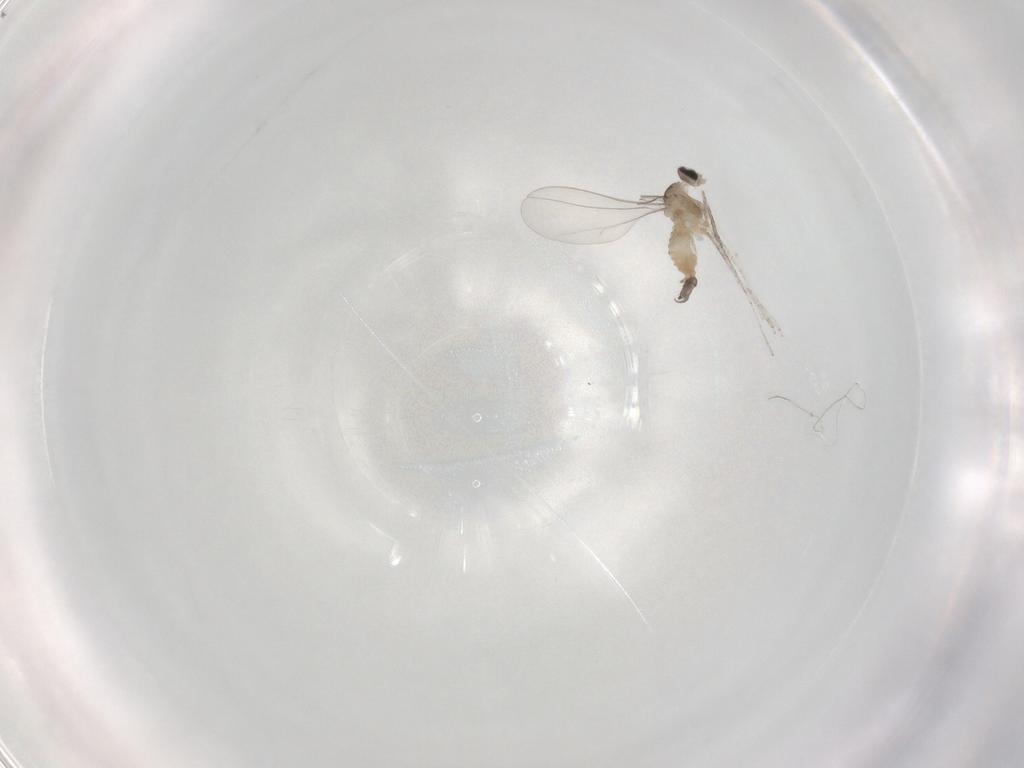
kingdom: Animalia
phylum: Arthropoda
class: Insecta
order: Diptera
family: Cecidomyiidae
